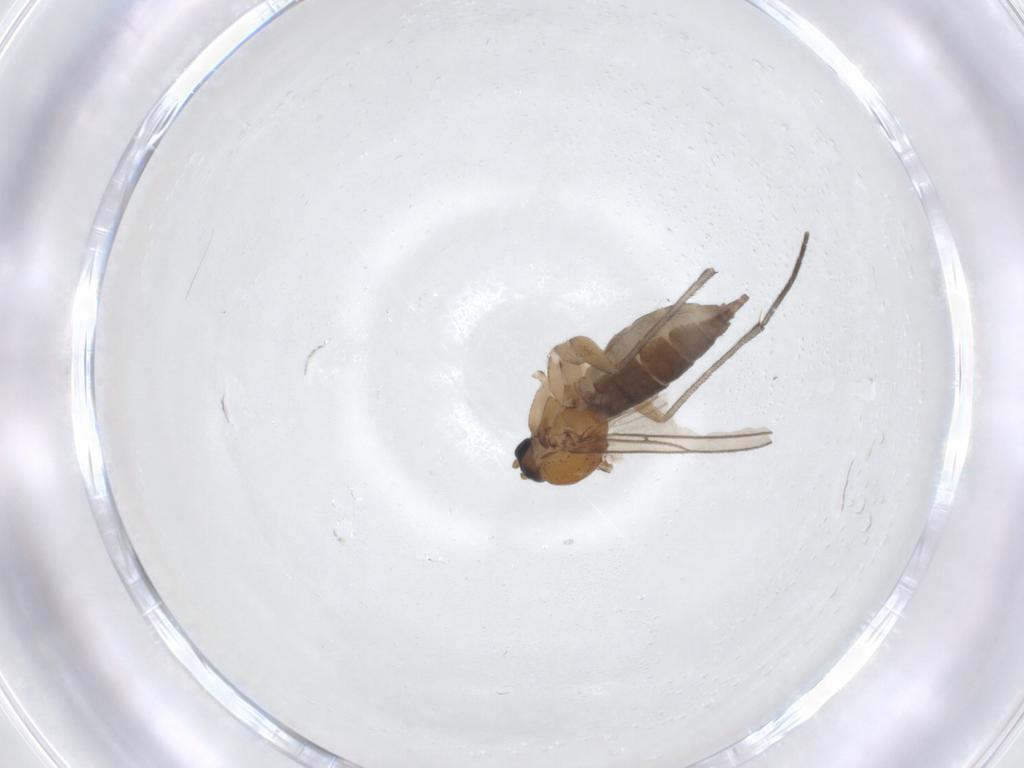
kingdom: Animalia
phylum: Arthropoda
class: Insecta
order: Diptera
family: Sciaridae
